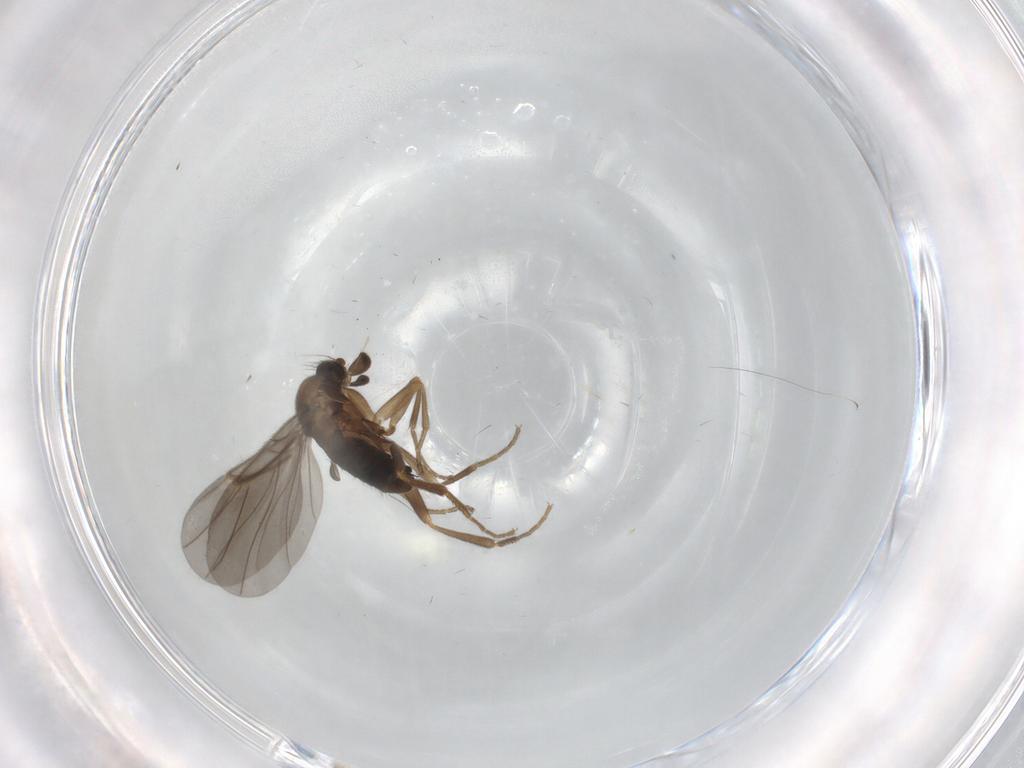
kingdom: Animalia
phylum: Arthropoda
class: Insecta
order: Diptera
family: Phoridae
